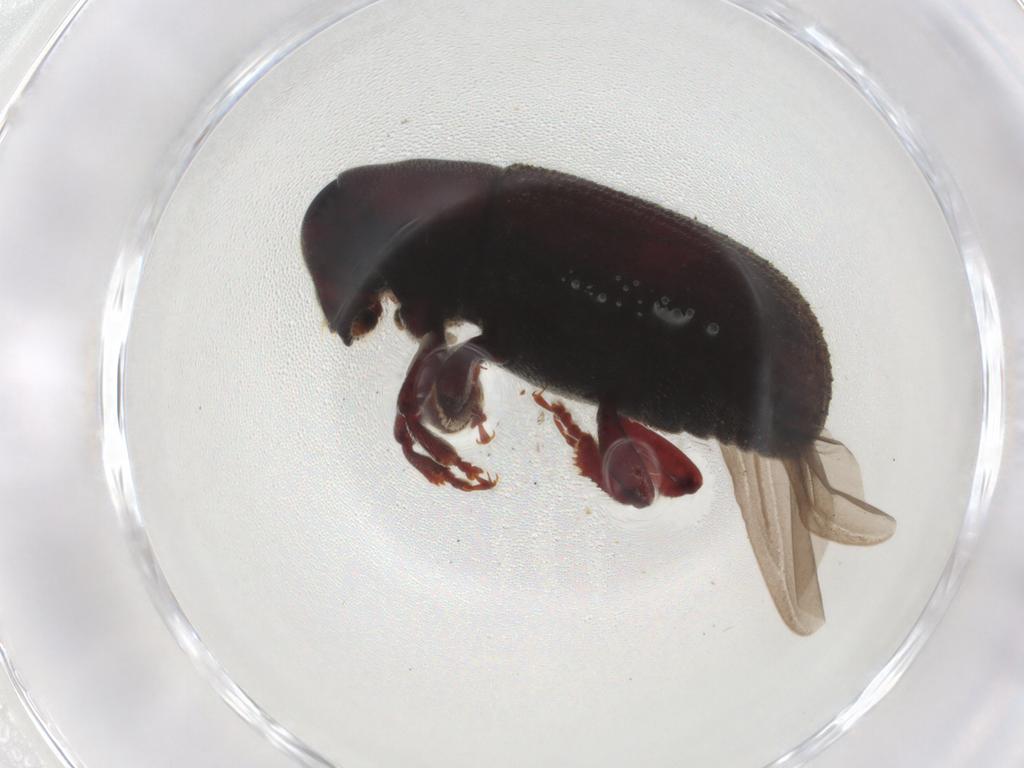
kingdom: Animalia
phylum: Arthropoda
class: Insecta
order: Coleoptera
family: Curculionidae
